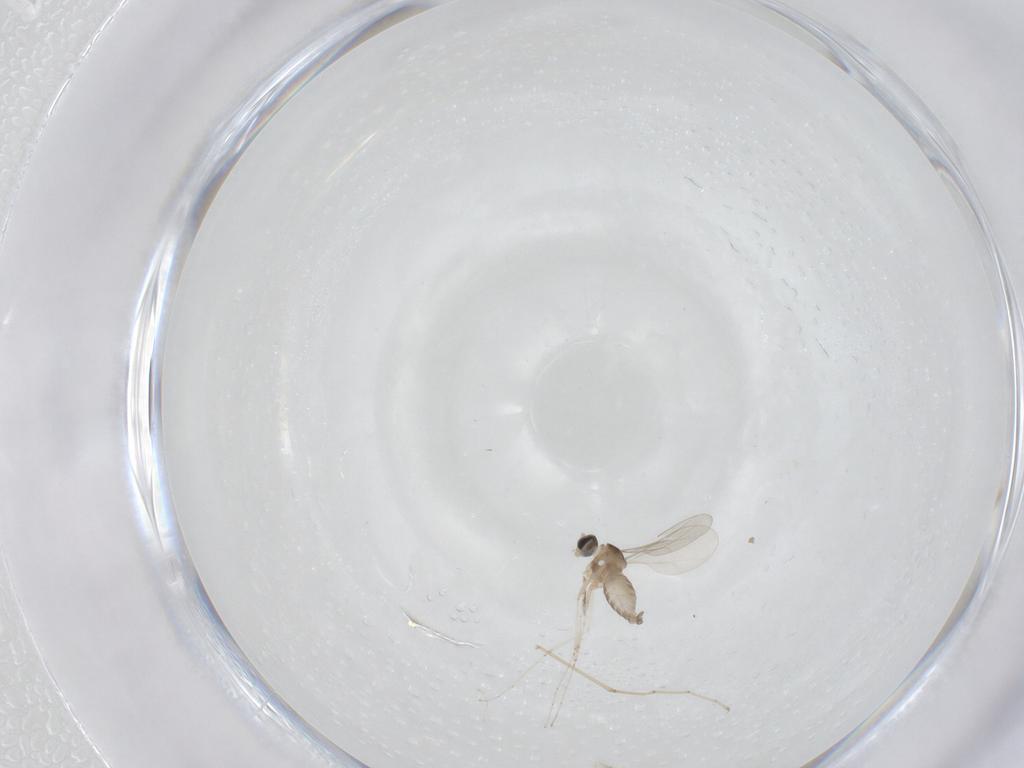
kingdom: Animalia
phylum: Arthropoda
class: Insecta
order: Diptera
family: Cecidomyiidae
